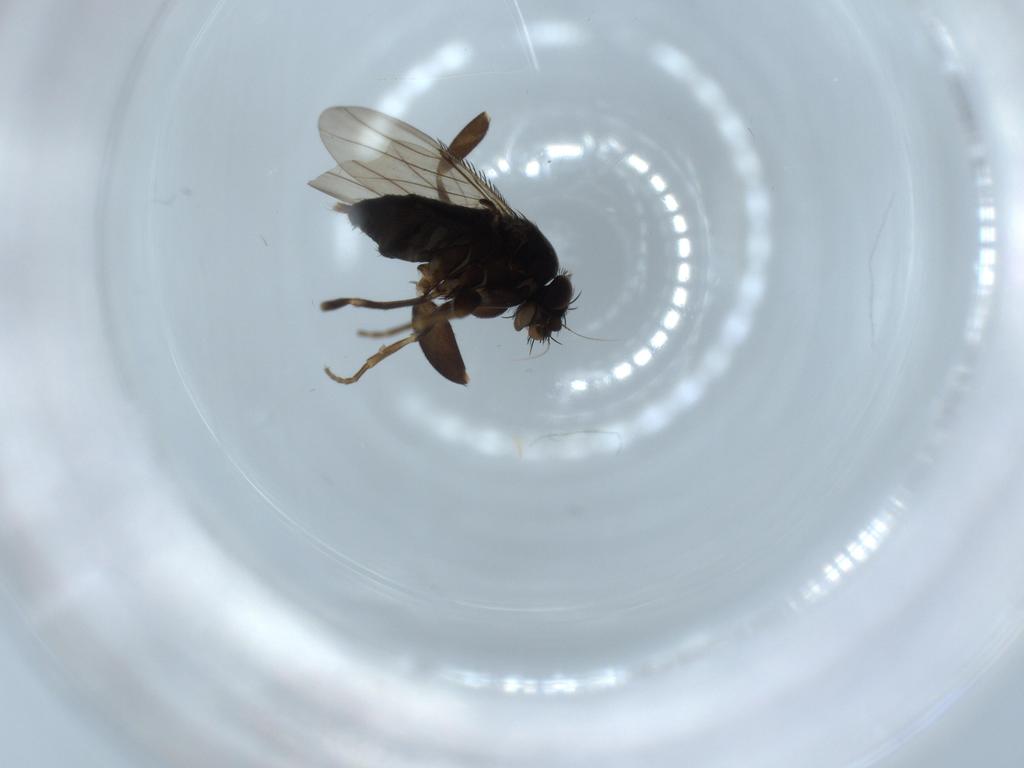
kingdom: Animalia
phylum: Arthropoda
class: Insecta
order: Diptera
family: Phoridae
